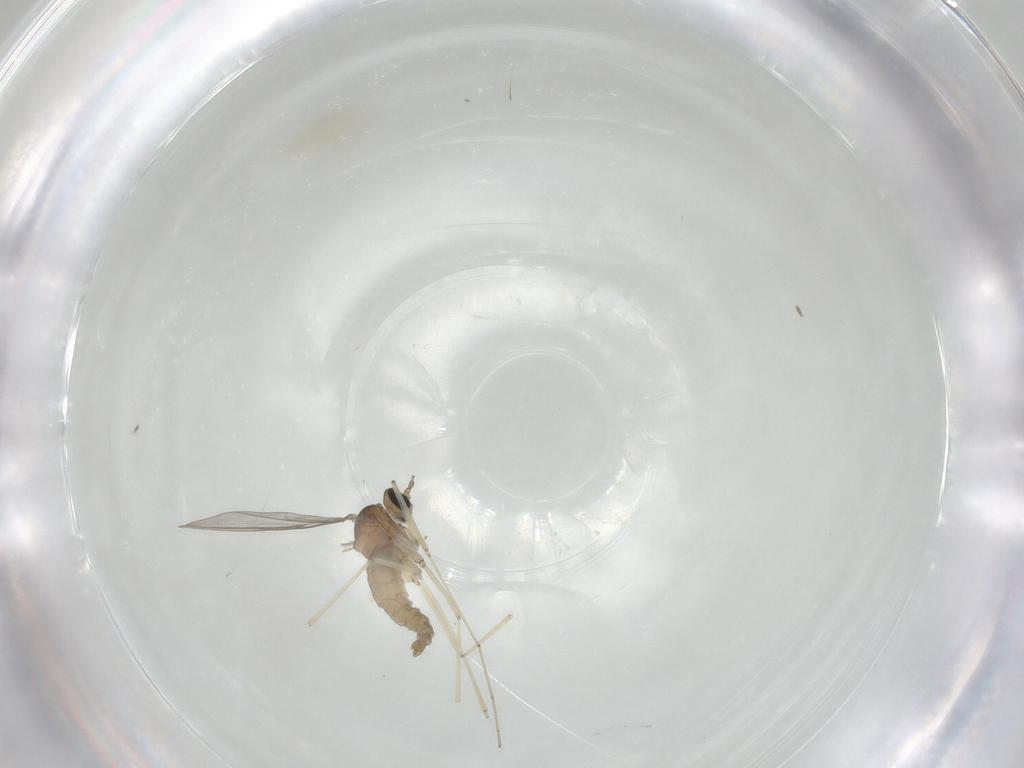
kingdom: Animalia
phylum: Arthropoda
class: Insecta
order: Diptera
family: Cecidomyiidae
